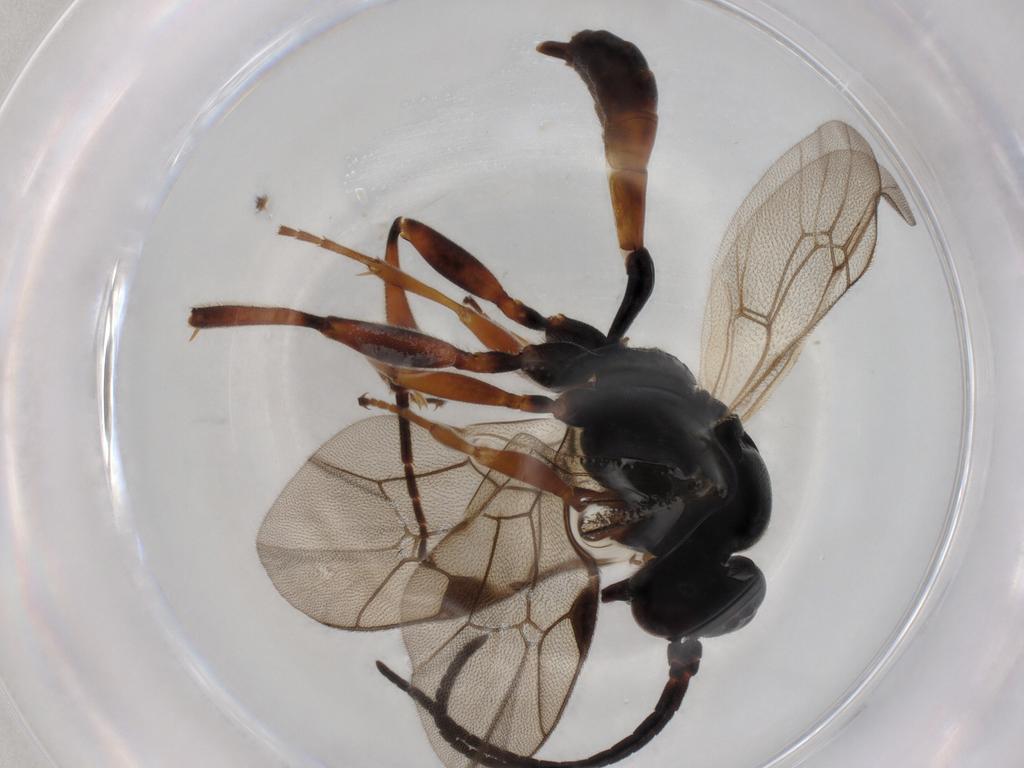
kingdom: Animalia
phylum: Arthropoda
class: Insecta
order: Hymenoptera
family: Ichneumonidae
